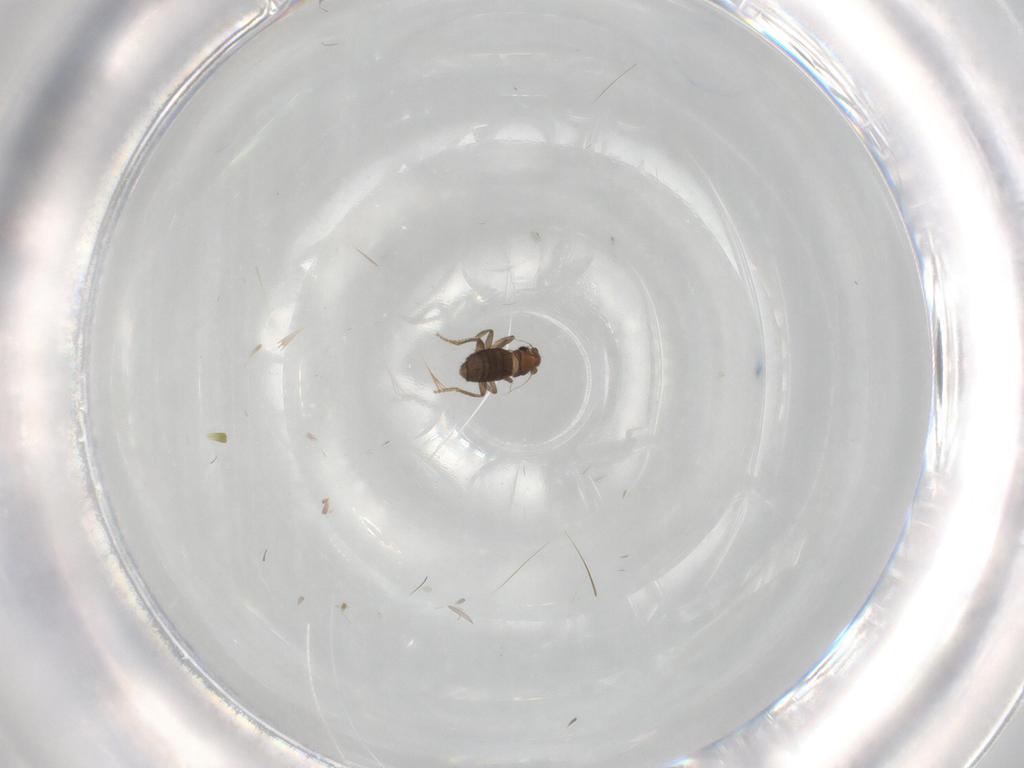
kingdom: Animalia
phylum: Arthropoda
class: Insecta
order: Diptera
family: Phoridae
